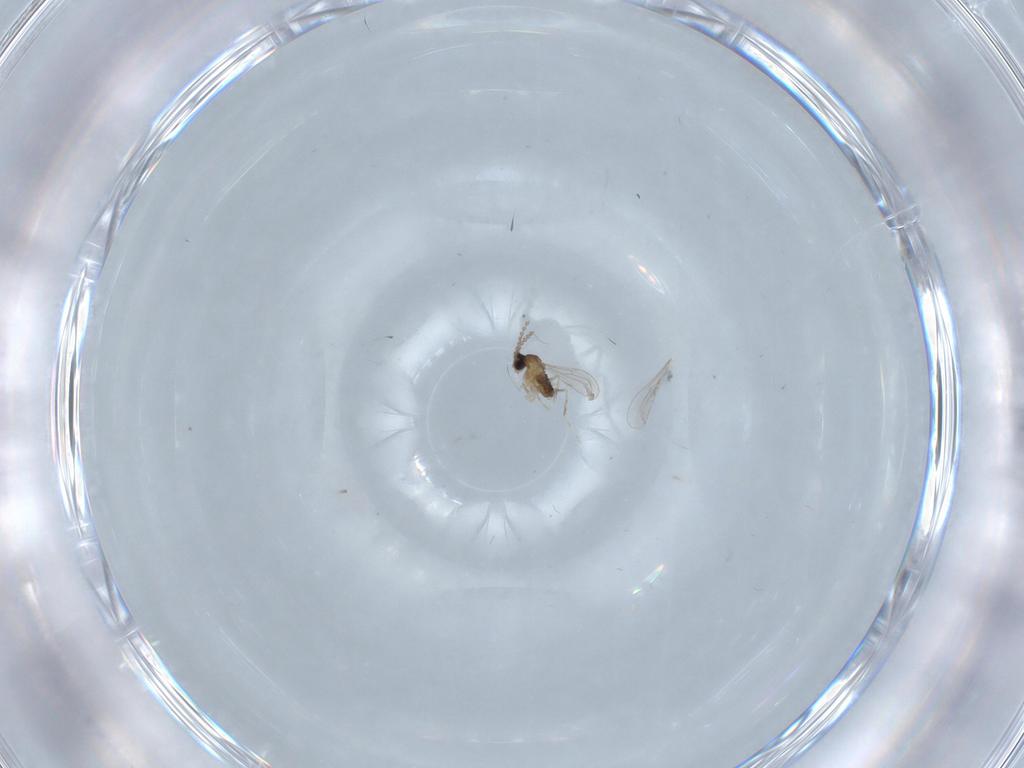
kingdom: Animalia
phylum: Arthropoda
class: Insecta
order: Diptera
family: Cecidomyiidae
